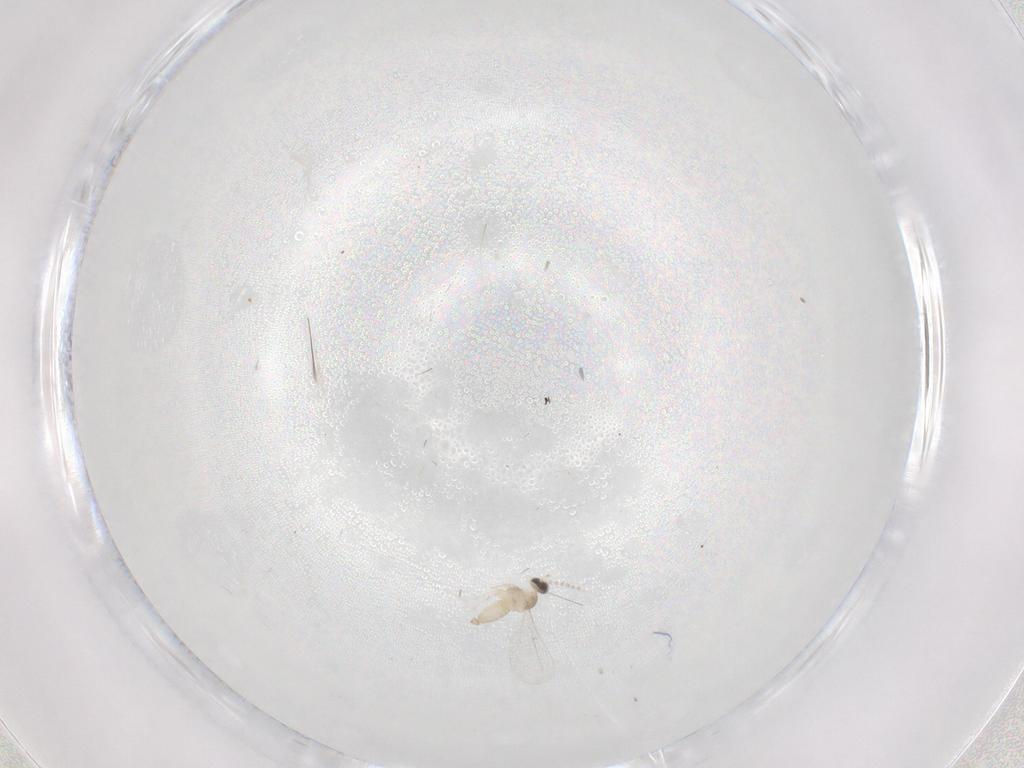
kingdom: Animalia
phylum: Arthropoda
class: Insecta
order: Diptera
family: Cecidomyiidae
